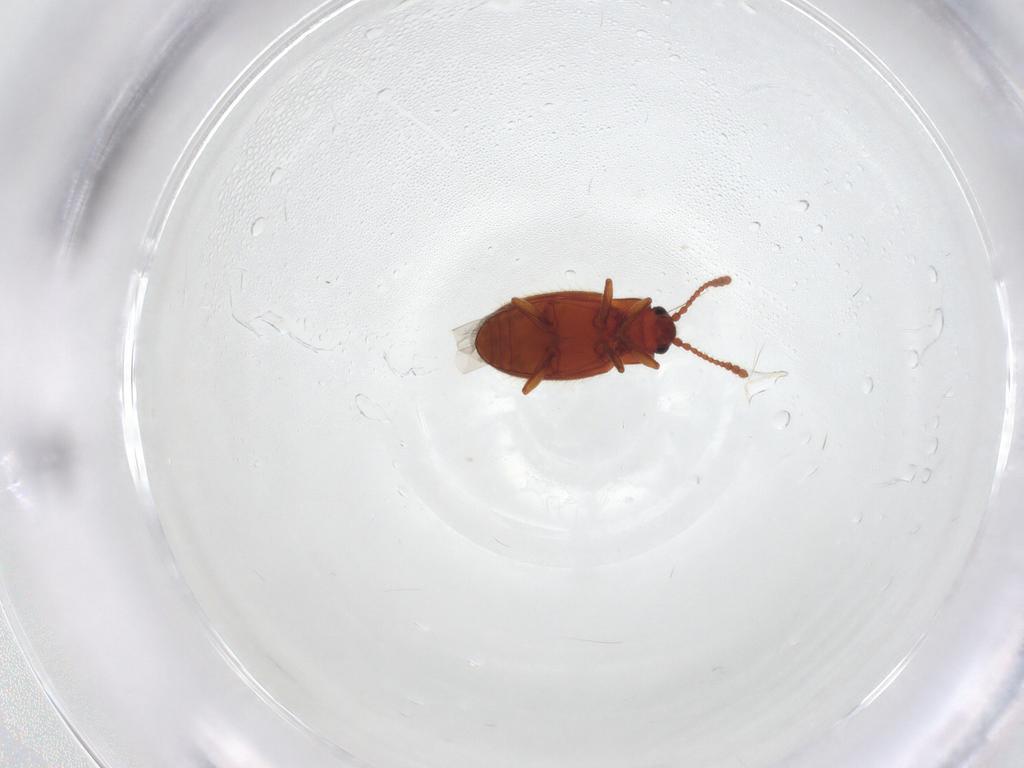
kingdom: Animalia
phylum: Arthropoda
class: Insecta
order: Coleoptera
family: Cryptophagidae
